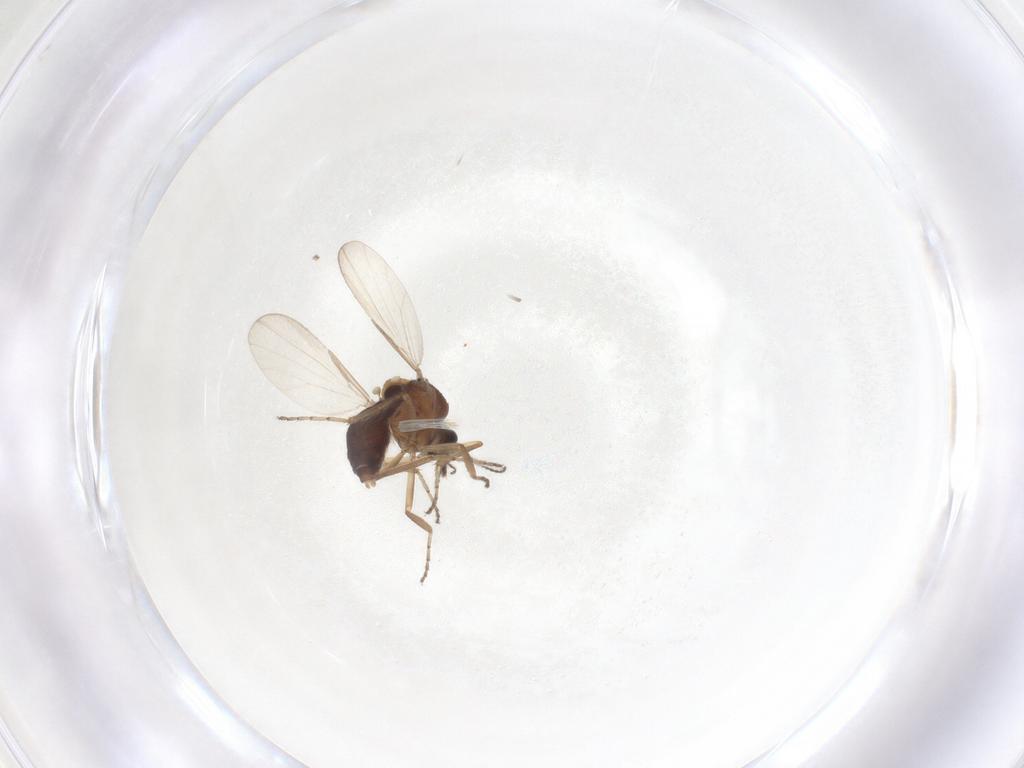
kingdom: Animalia
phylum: Arthropoda
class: Insecta
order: Diptera
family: Ceratopogonidae
